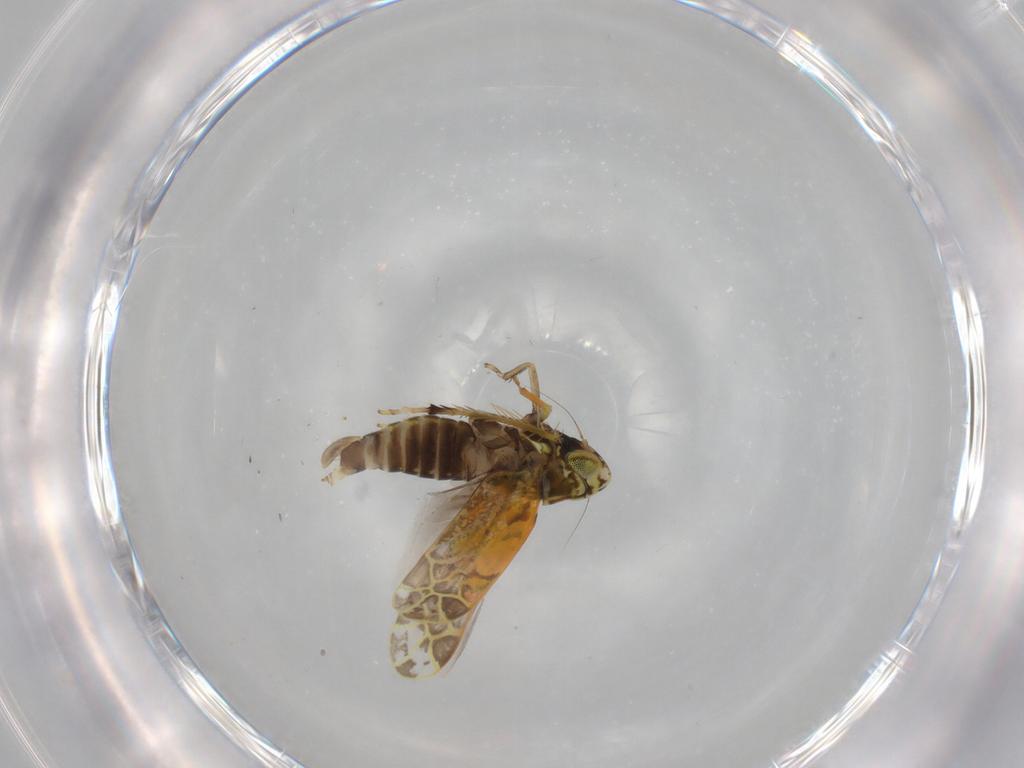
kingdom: Animalia
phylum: Arthropoda
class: Insecta
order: Hemiptera
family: Cicadellidae
